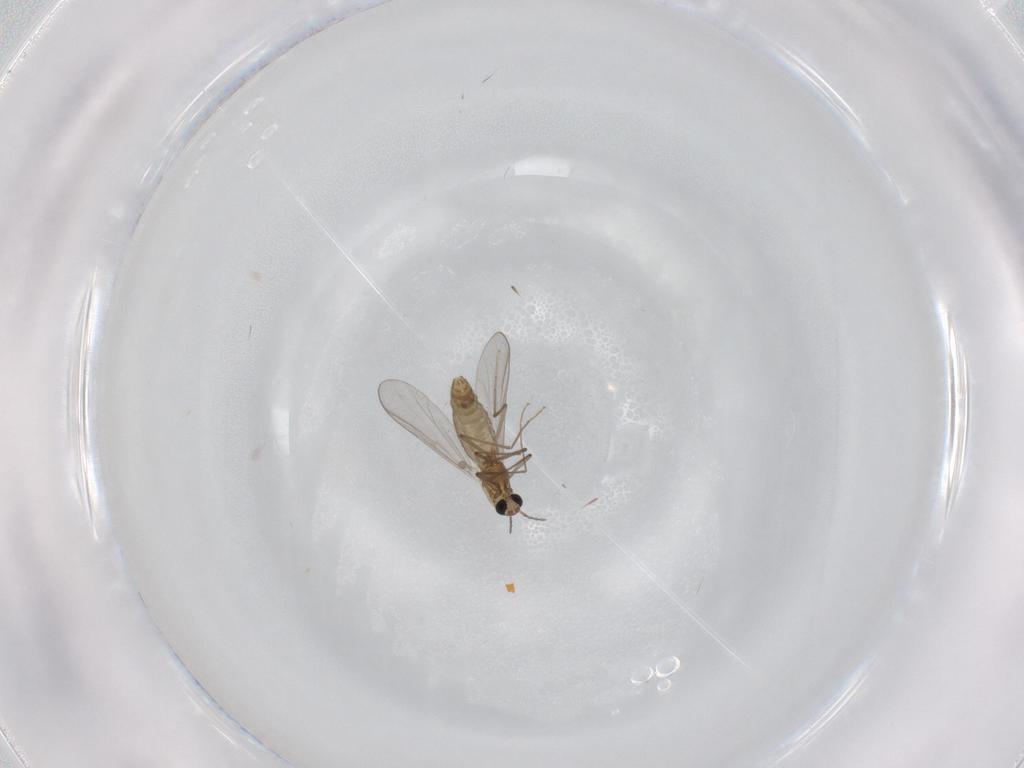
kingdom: Animalia
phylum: Arthropoda
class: Insecta
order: Diptera
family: Chironomidae
